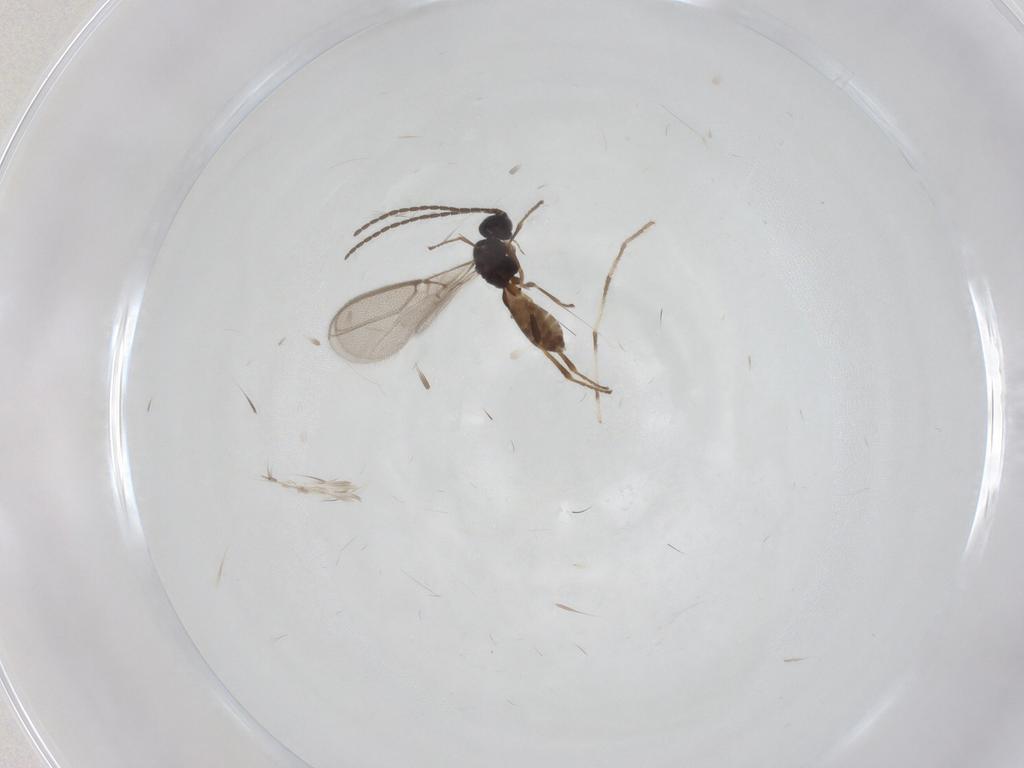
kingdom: Animalia
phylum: Arthropoda
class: Insecta
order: Hymenoptera
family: Braconidae
